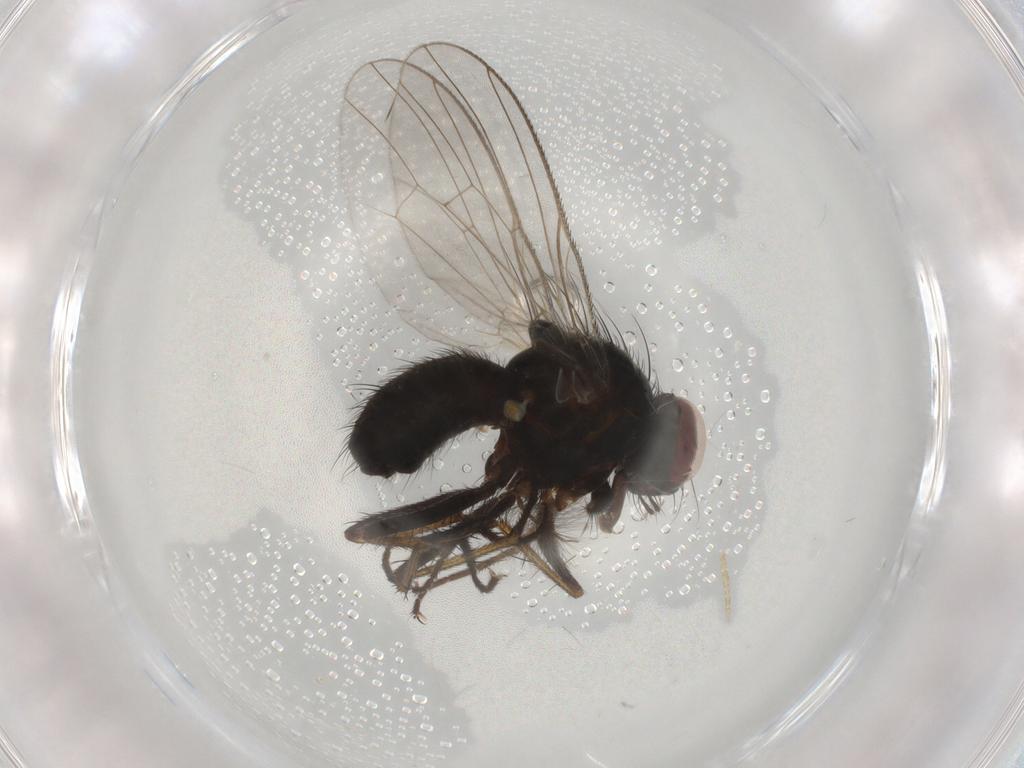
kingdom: Animalia
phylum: Arthropoda
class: Insecta
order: Diptera
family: Muscidae
